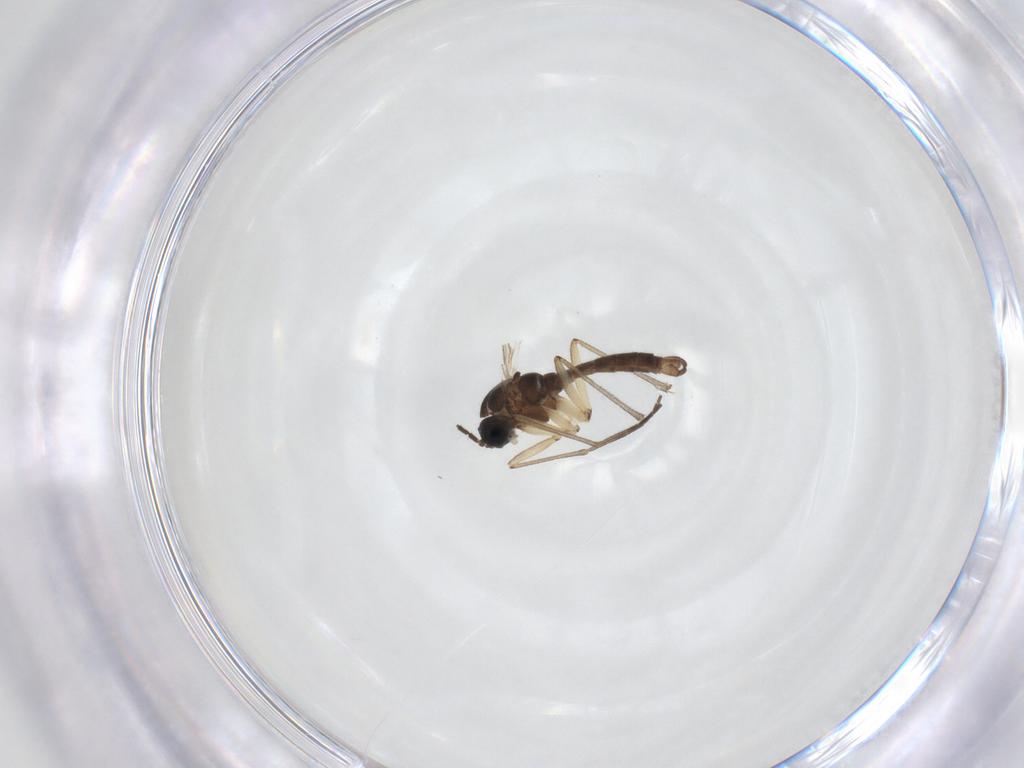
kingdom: Animalia
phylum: Arthropoda
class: Insecta
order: Diptera
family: Sciaridae
